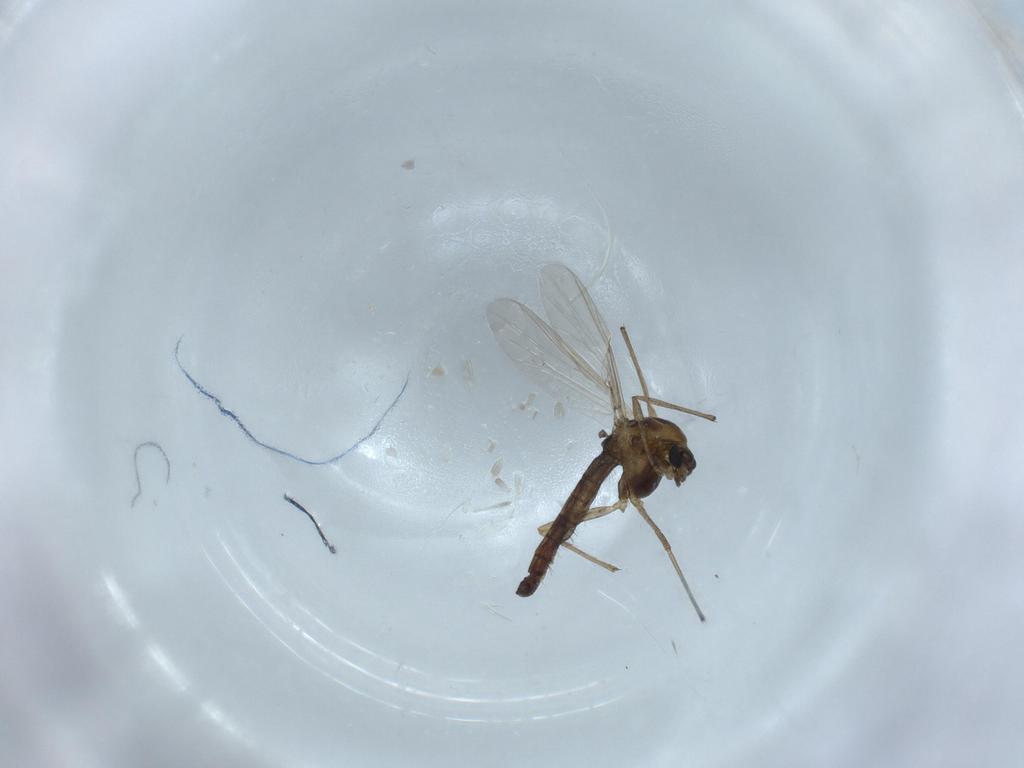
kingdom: Animalia
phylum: Arthropoda
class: Insecta
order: Diptera
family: Chironomidae
